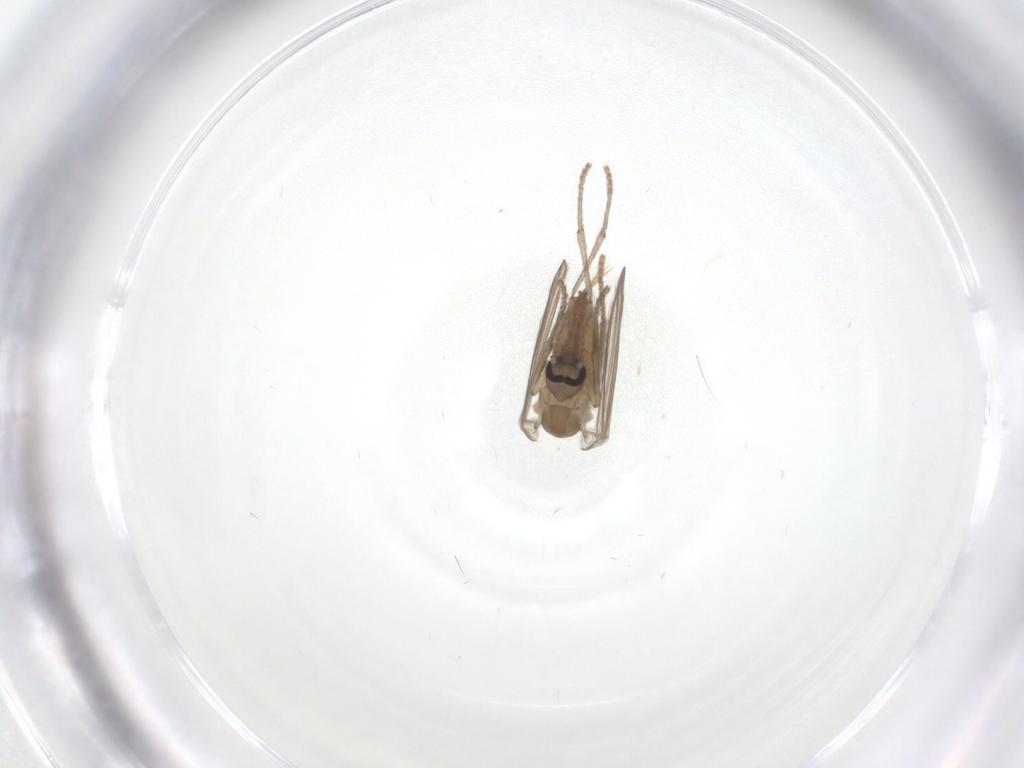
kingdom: Animalia
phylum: Arthropoda
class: Insecta
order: Diptera
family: Psychodidae
